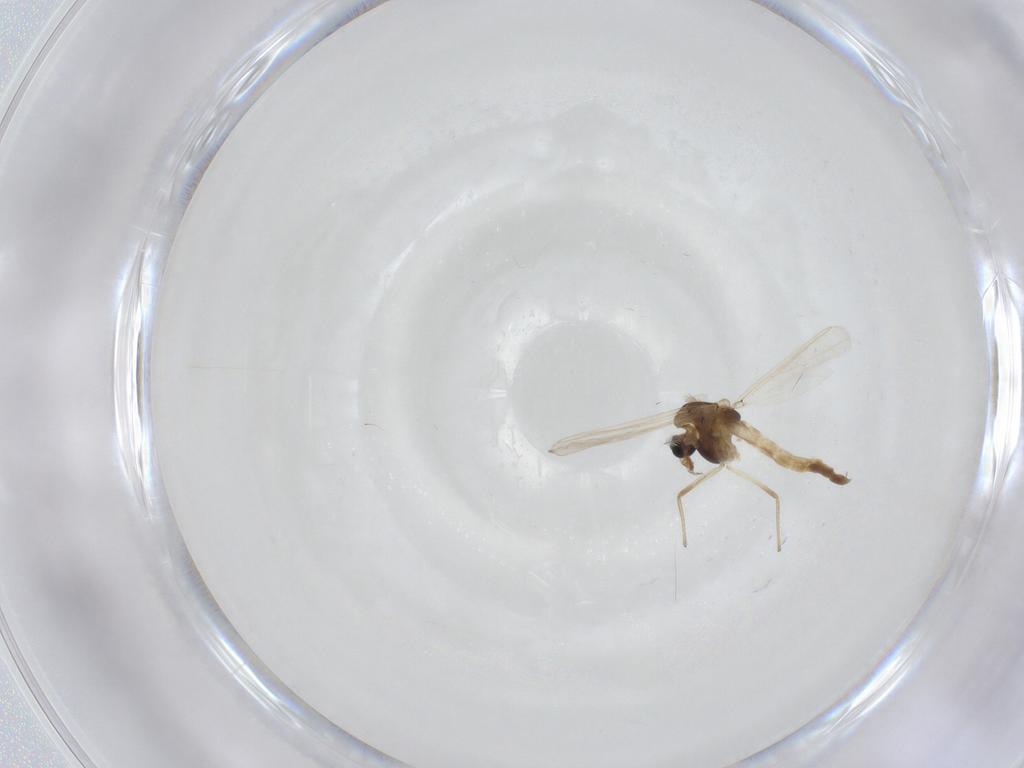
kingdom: Animalia
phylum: Arthropoda
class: Insecta
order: Diptera
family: Chironomidae
